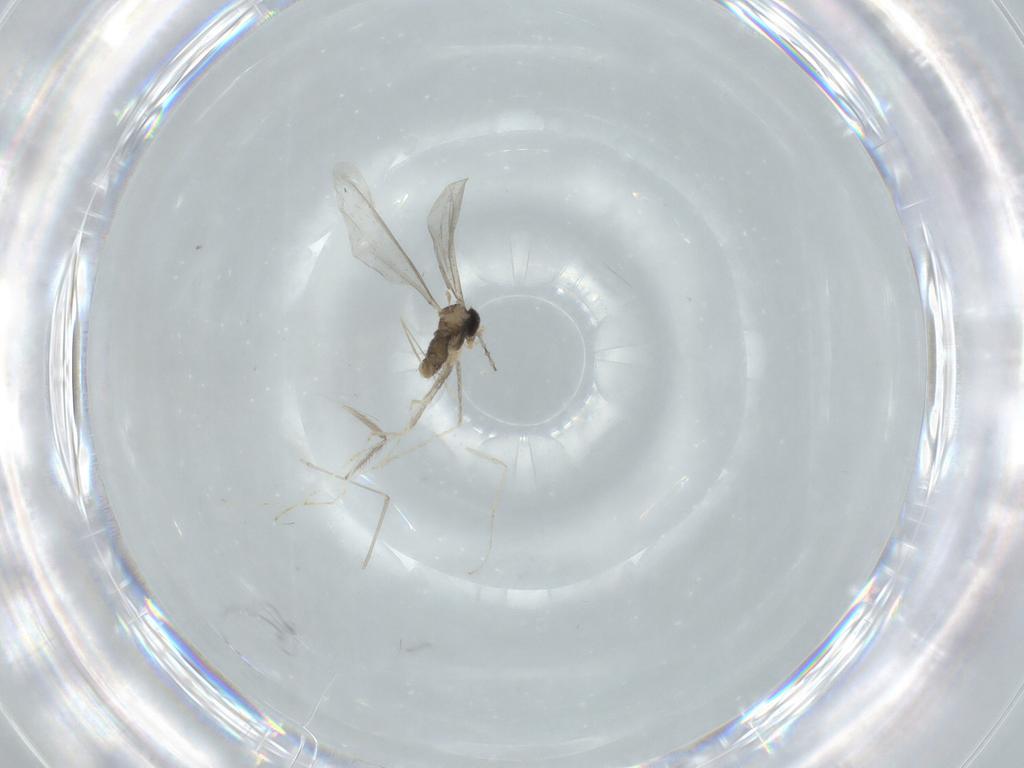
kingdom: Animalia
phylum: Arthropoda
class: Insecta
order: Diptera
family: Cecidomyiidae
